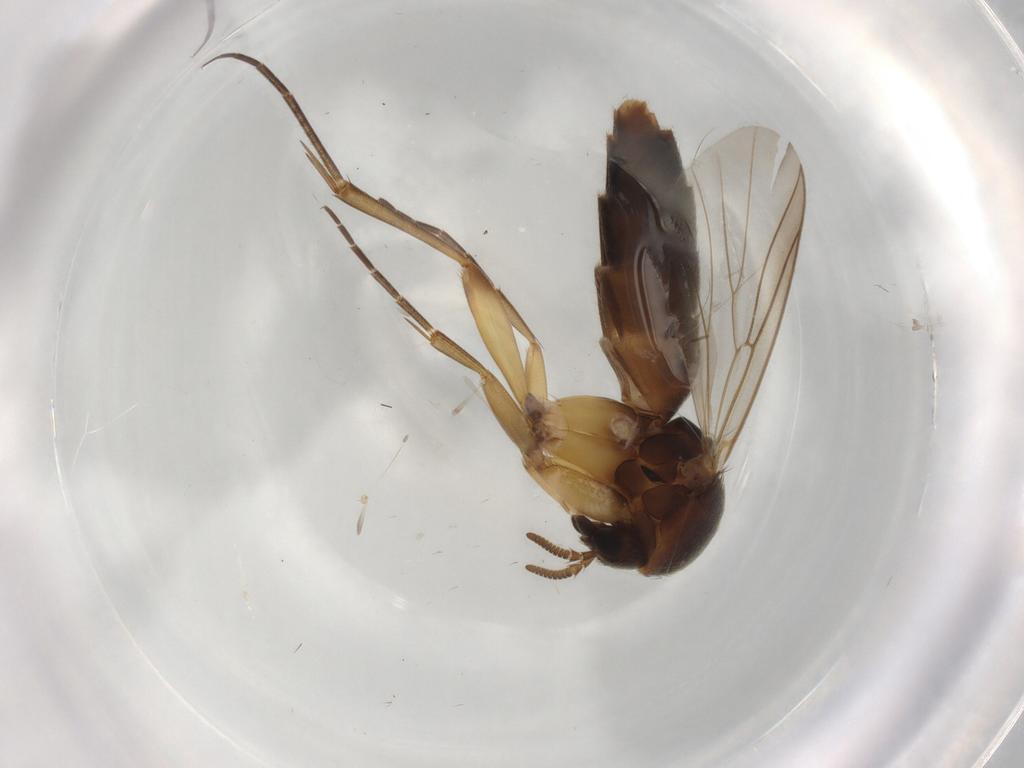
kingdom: Animalia
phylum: Arthropoda
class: Insecta
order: Diptera
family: Mycetophilidae
